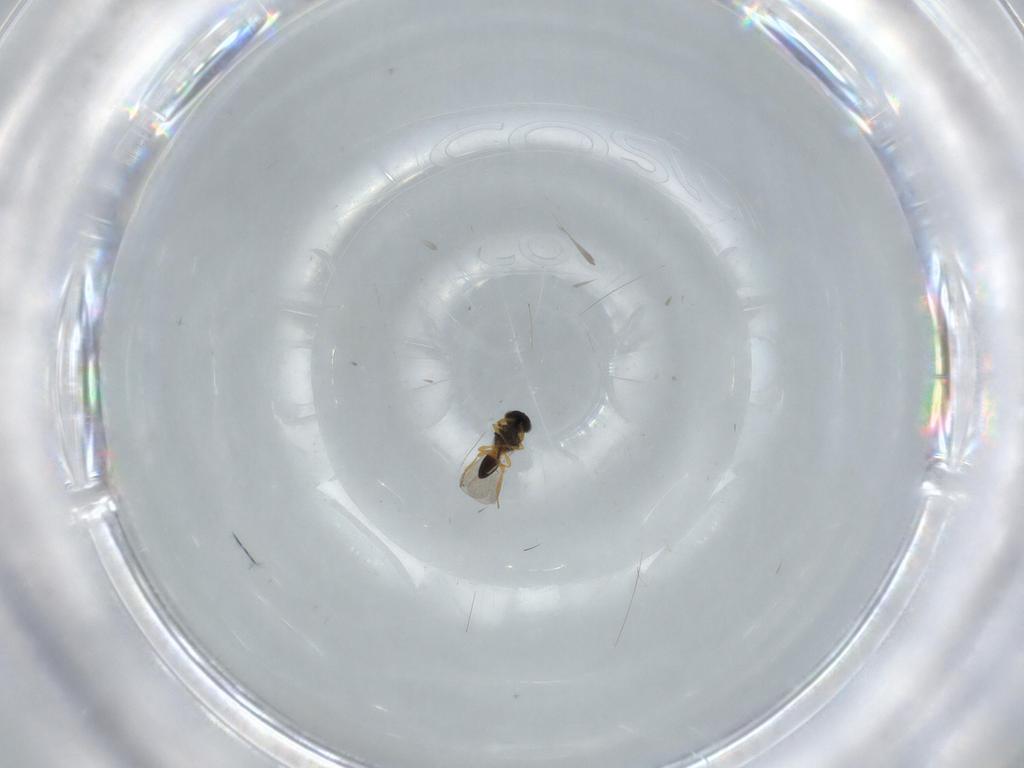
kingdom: Animalia
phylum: Arthropoda
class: Insecta
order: Hymenoptera
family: Platygastridae
